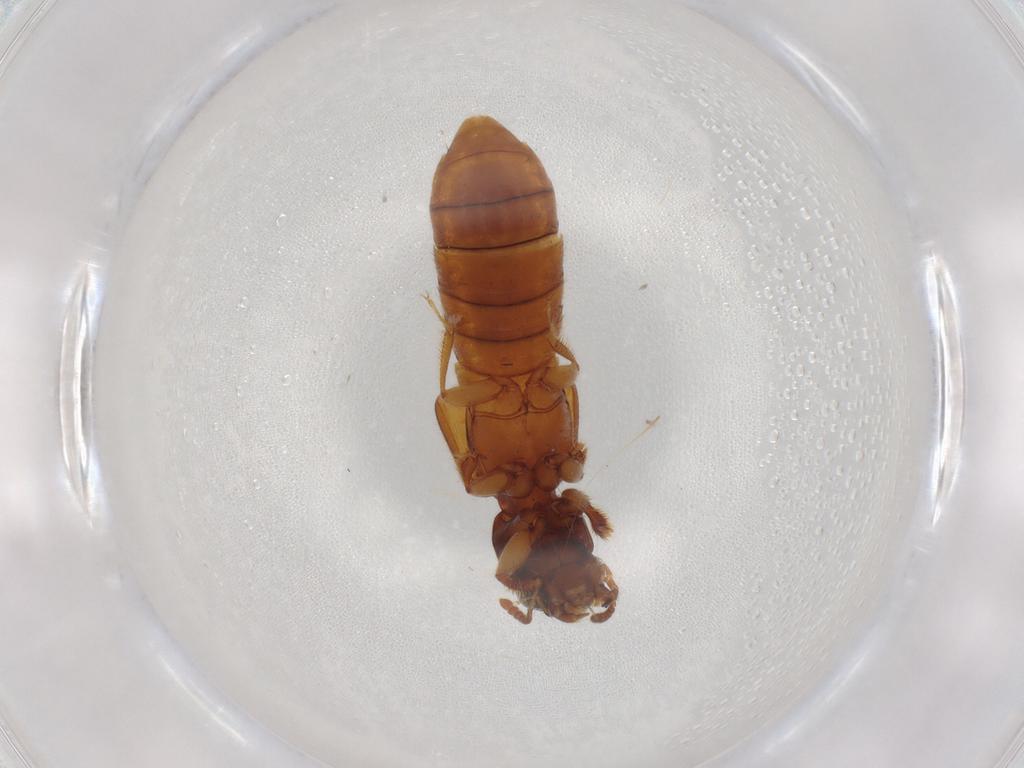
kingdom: Animalia
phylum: Arthropoda
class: Insecta
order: Coleoptera
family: Staphylinidae
